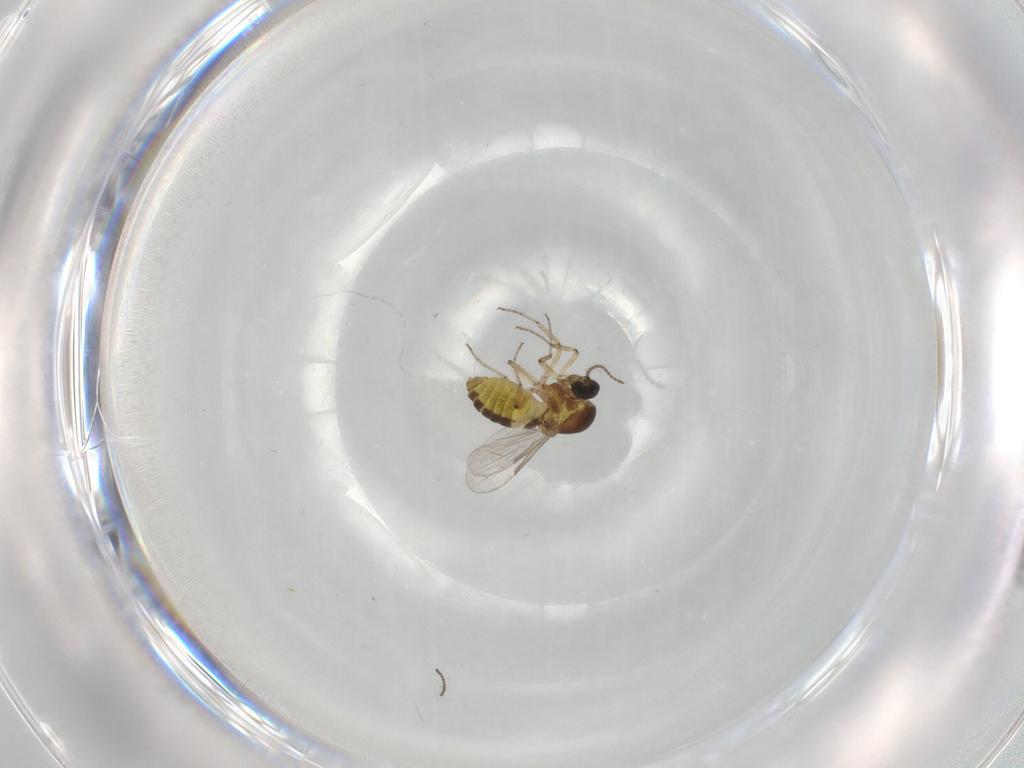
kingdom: Animalia
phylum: Arthropoda
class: Insecta
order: Diptera
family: Ceratopogonidae
